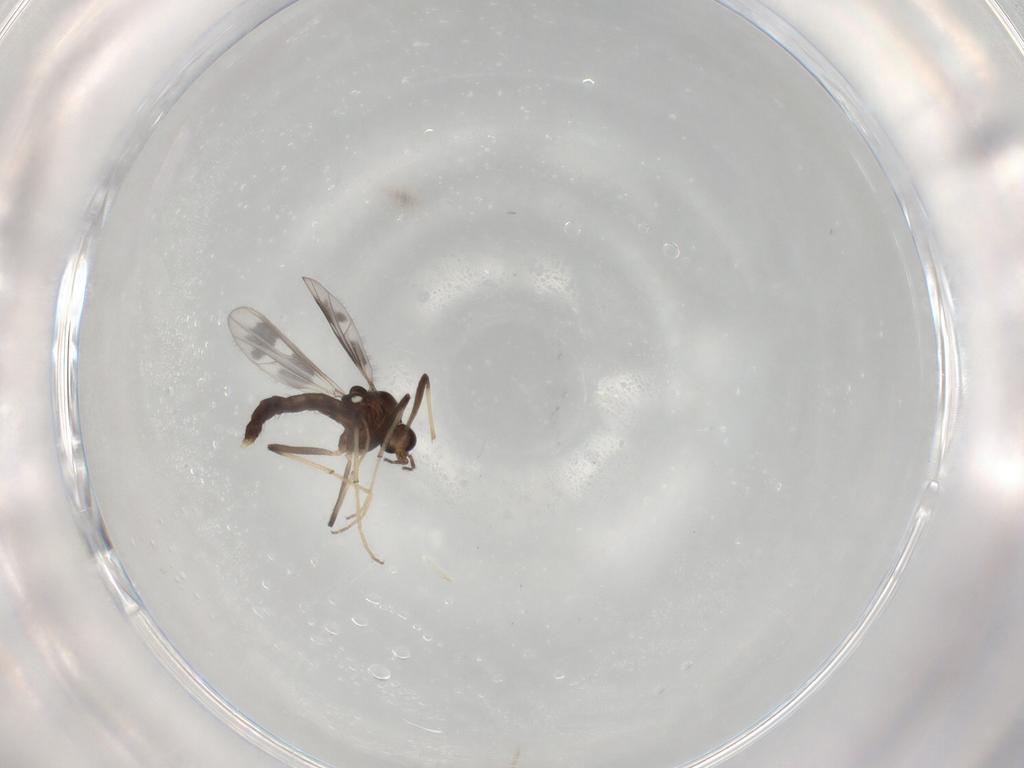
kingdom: Animalia
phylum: Arthropoda
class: Insecta
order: Diptera
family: Chironomidae
